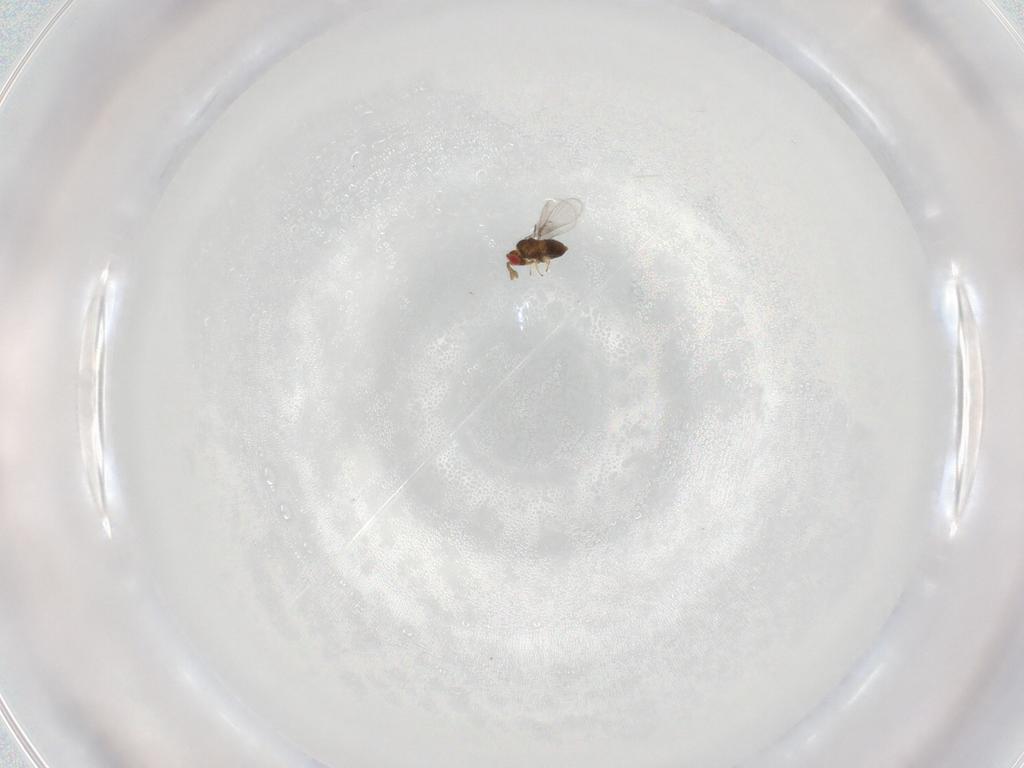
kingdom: Animalia
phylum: Arthropoda
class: Insecta
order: Hymenoptera
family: Trichogrammatidae
